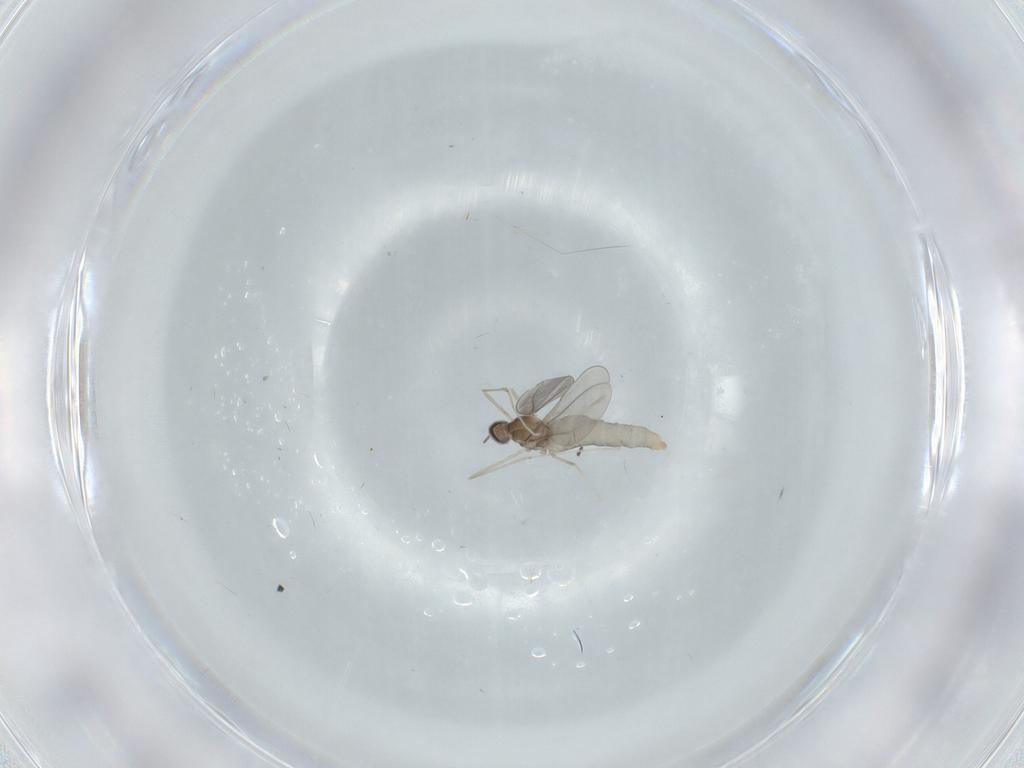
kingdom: Animalia
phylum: Arthropoda
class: Insecta
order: Diptera
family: Cecidomyiidae
